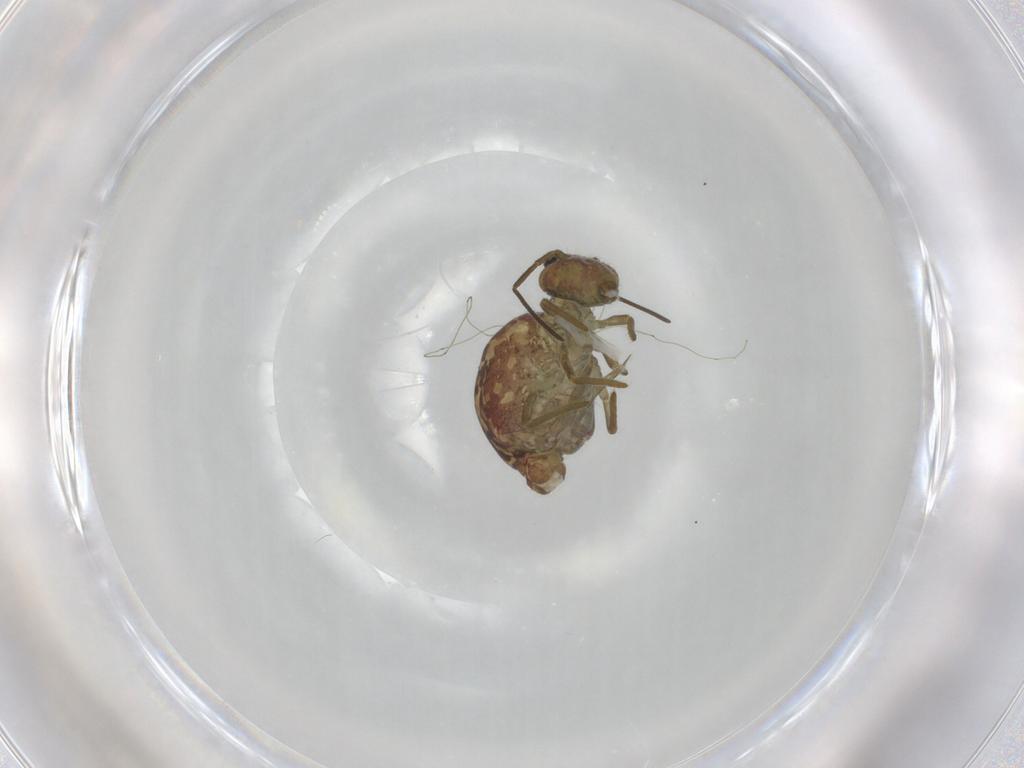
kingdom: Animalia
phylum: Arthropoda
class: Collembola
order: Symphypleona
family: Sminthuridae
